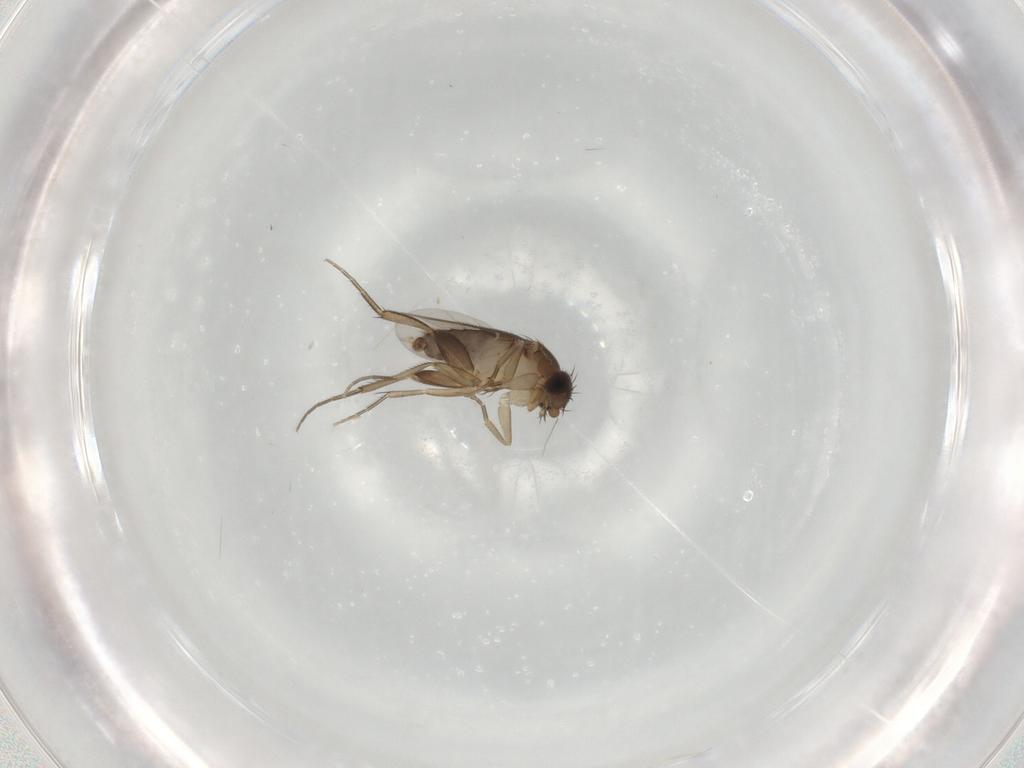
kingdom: Animalia
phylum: Arthropoda
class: Insecta
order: Diptera
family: Phoridae
